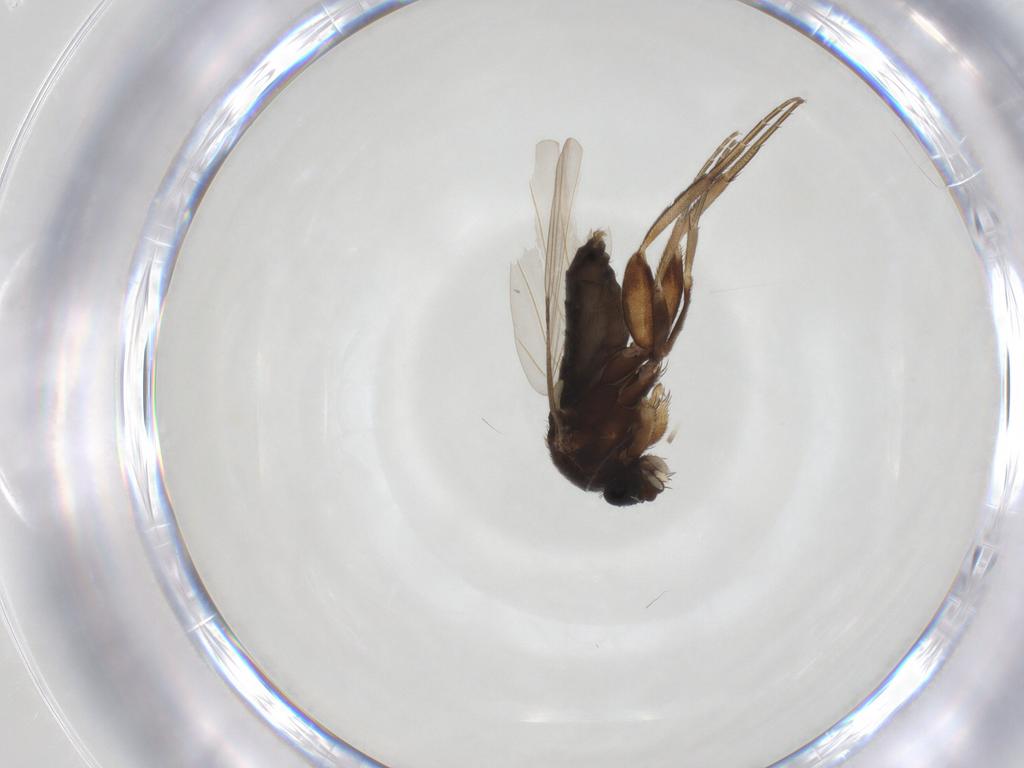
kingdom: Animalia
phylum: Arthropoda
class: Insecta
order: Diptera
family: Phoridae
